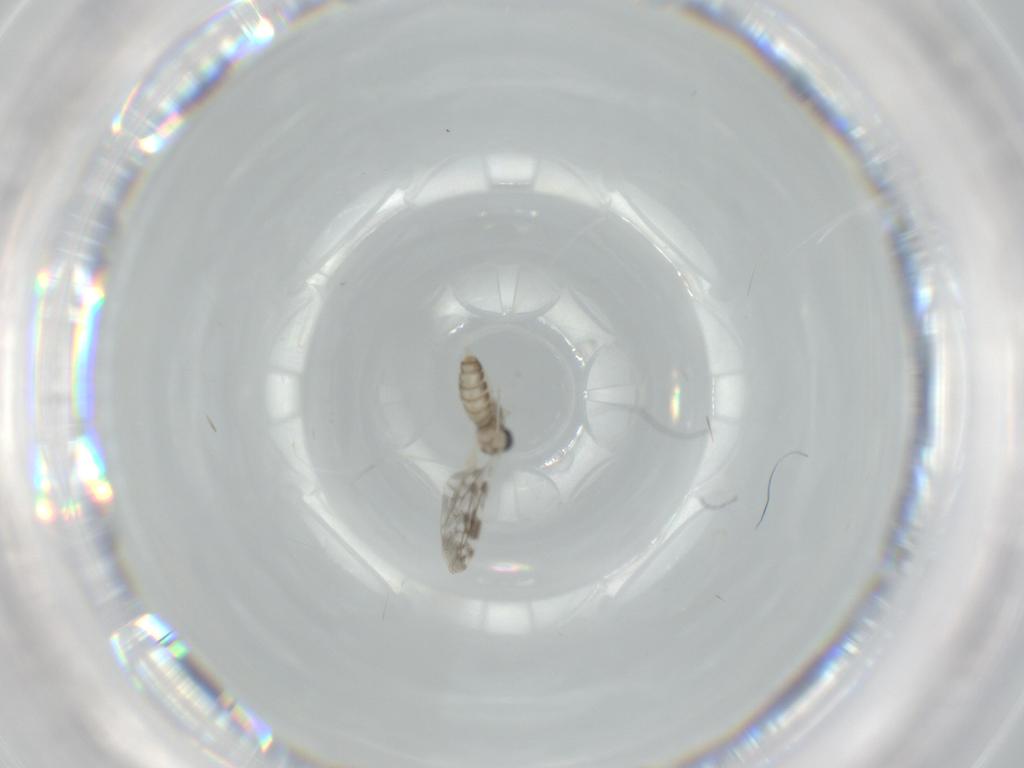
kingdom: Animalia
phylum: Arthropoda
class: Insecta
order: Diptera
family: Cecidomyiidae
